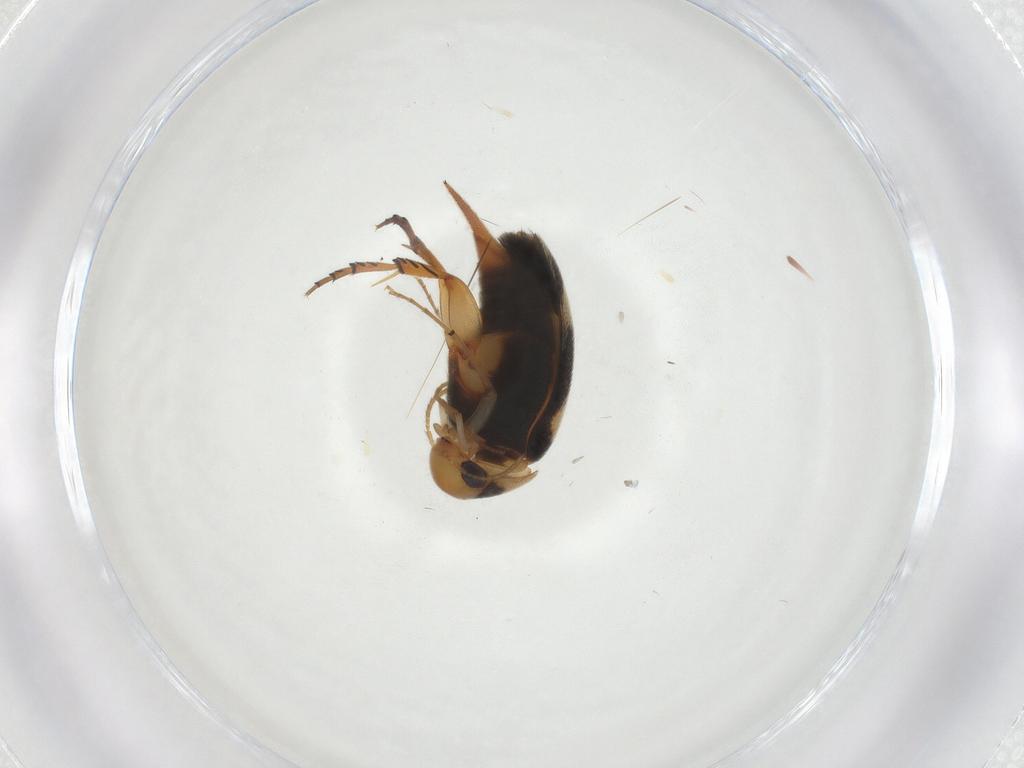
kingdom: Animalia
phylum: Arthropoda
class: Insecta
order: Coleoptera
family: Mordellidae
